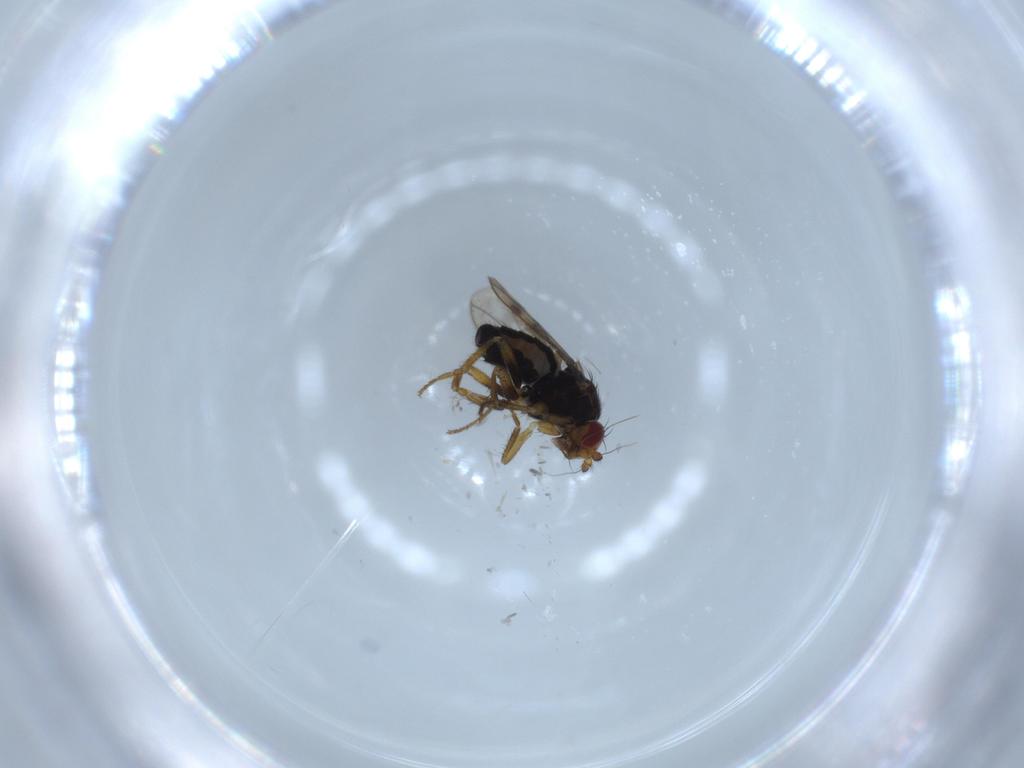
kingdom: Animalia
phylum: Arthropoda
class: Insecta
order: Diptera
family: Sphaeroceridae
